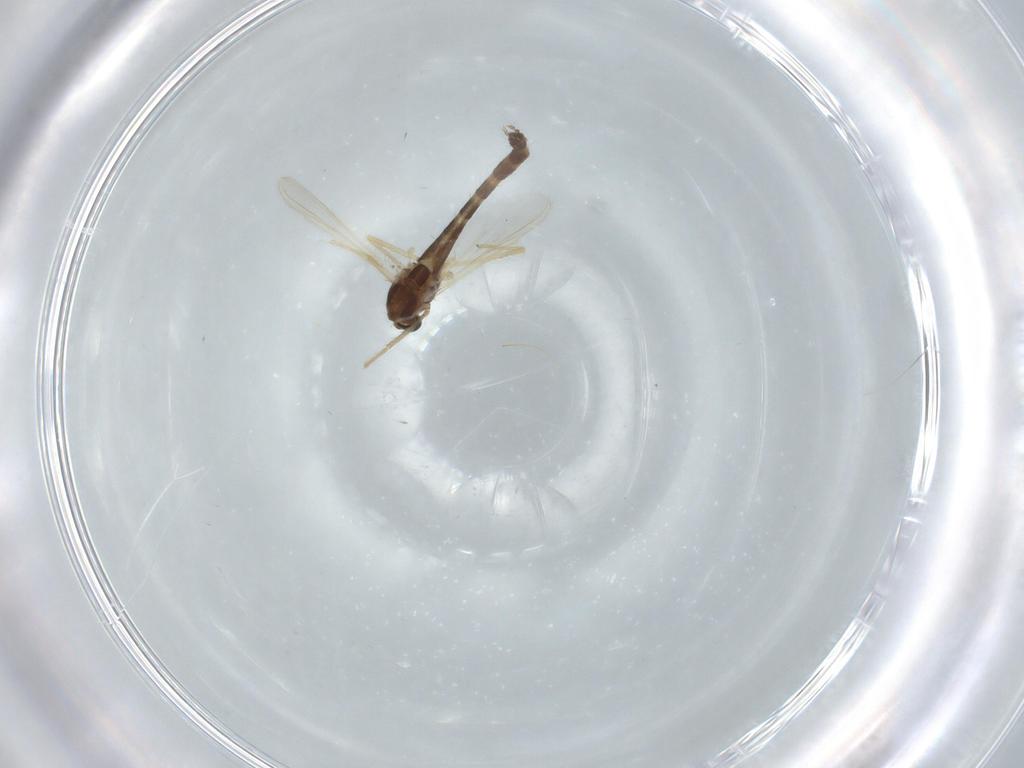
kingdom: Animalia
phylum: Arthropoda
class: Insecta
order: Diptera
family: Chironomidae
